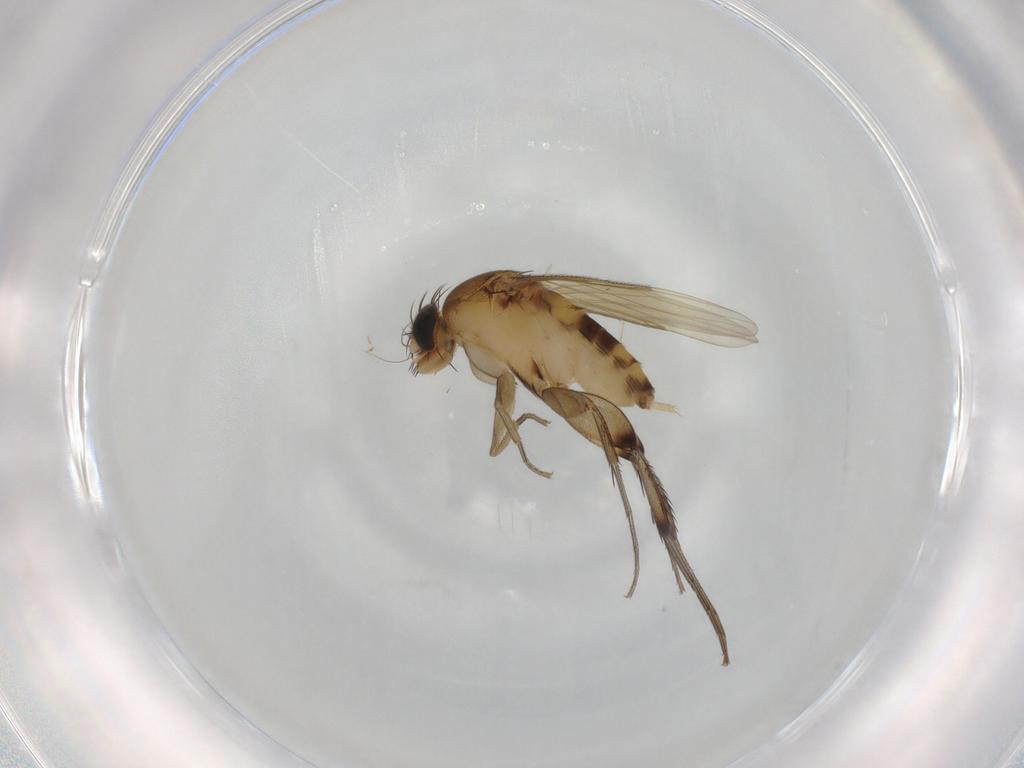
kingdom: Animalia
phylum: Arthropoda
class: Insecta
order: Diptera
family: Phoridae
